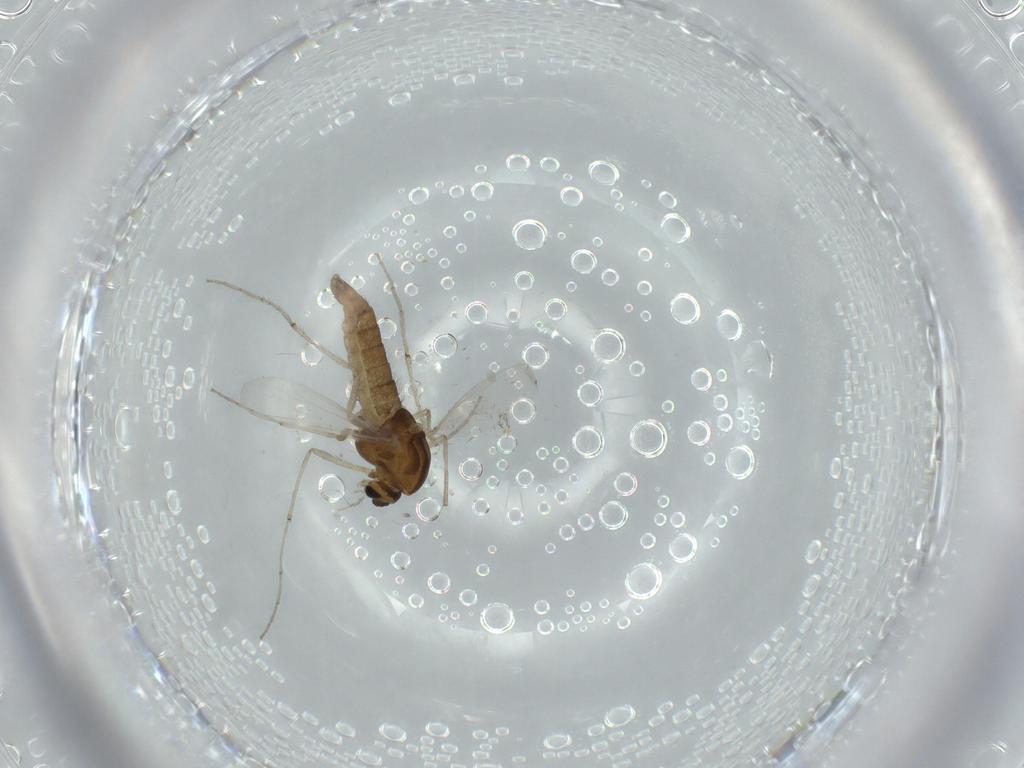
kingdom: Animalia
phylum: Arthropoda
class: Insecta
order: Diptera
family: Chironomidae
